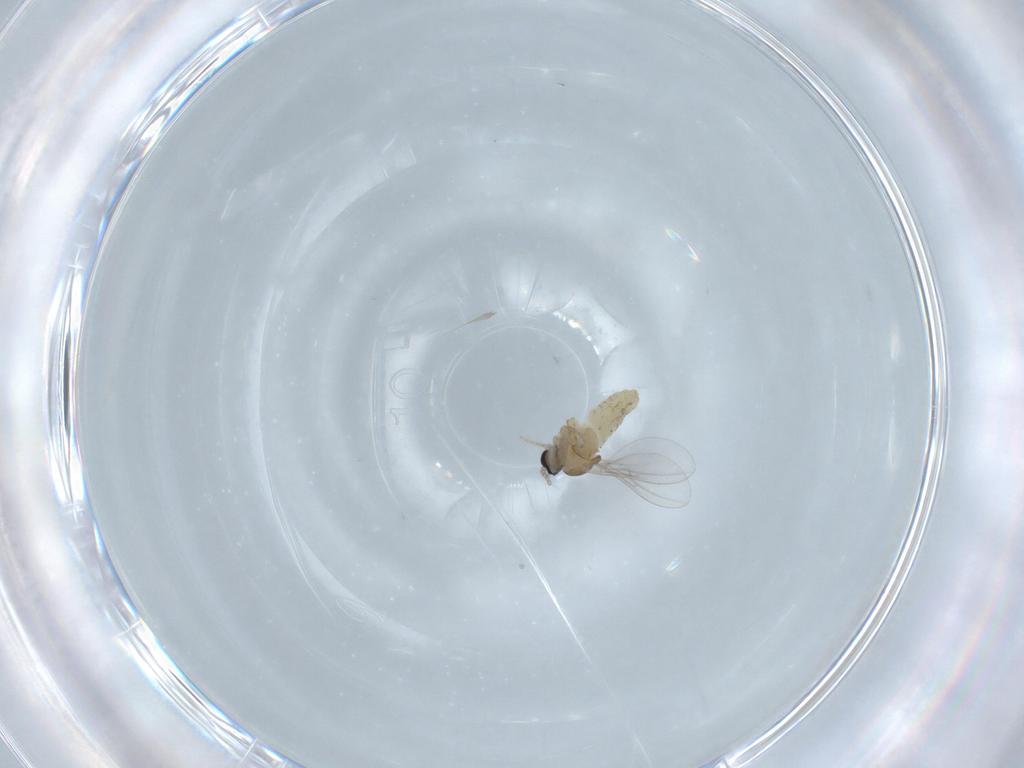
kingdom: Animalia
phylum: Arthropoda
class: Insecta
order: Diptera
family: Cecidomyiidae
